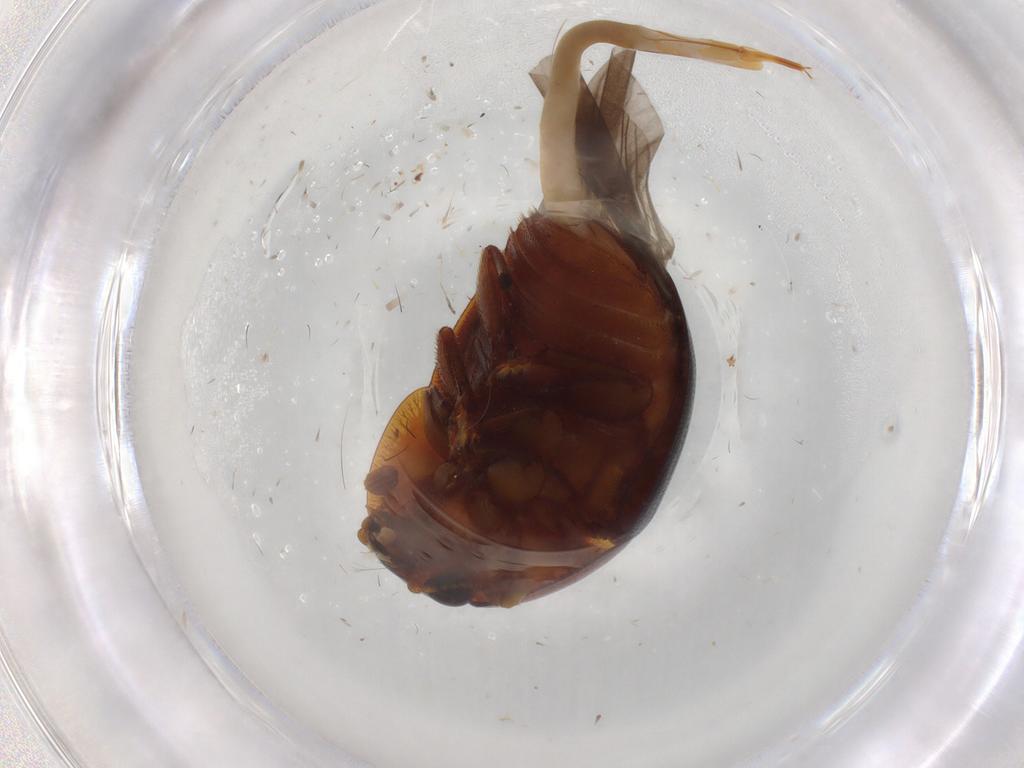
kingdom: Animalia
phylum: Arthropoda
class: Insecta
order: Coleoptera
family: Nitidulidae
